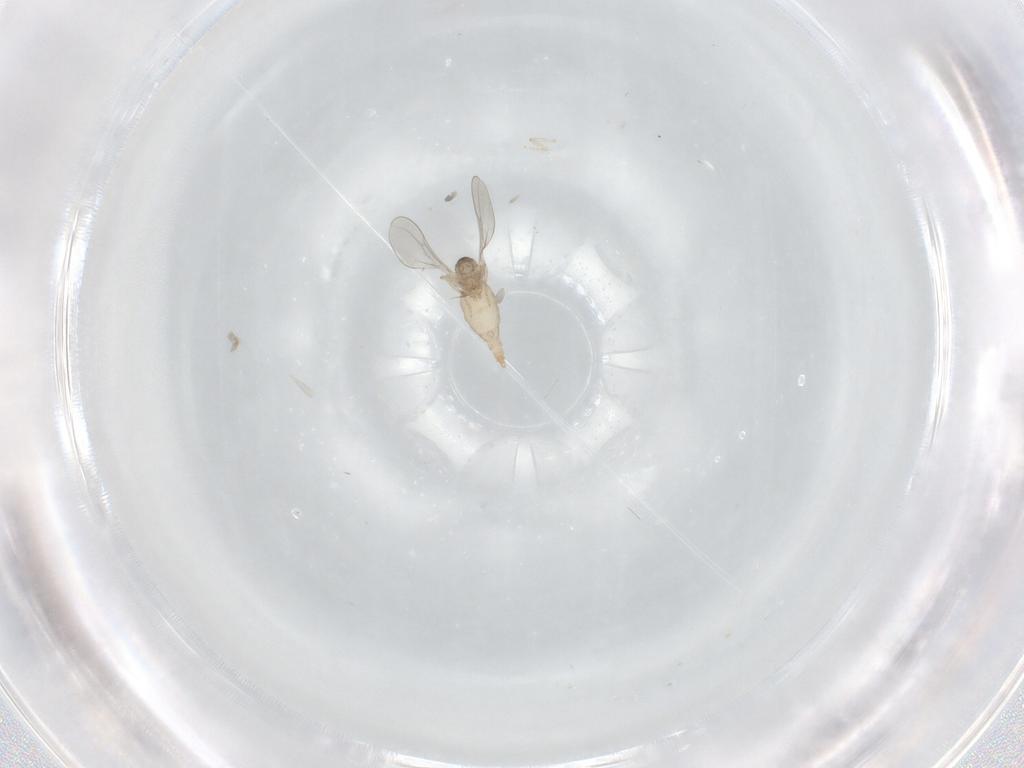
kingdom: Animalia
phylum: Arthropoda
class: Insecta
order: Diptera
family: Cecidomyiidae
